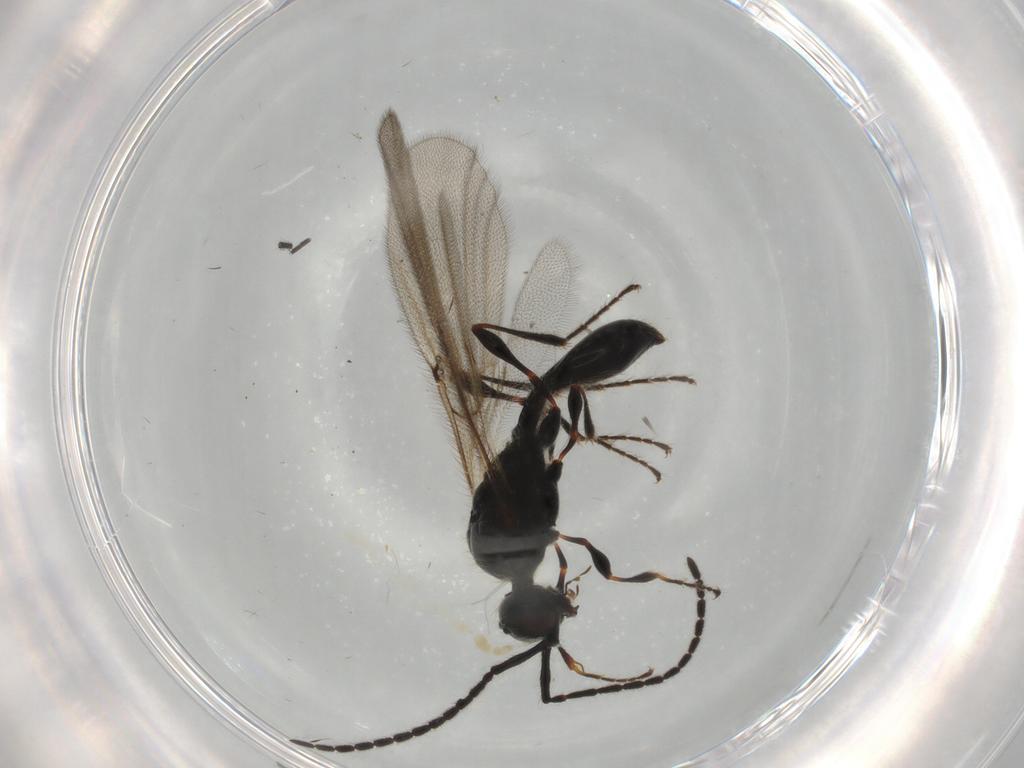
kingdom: Animalia
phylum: Arthropoda
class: Insecta
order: Hymenoptera
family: Diapriidae
